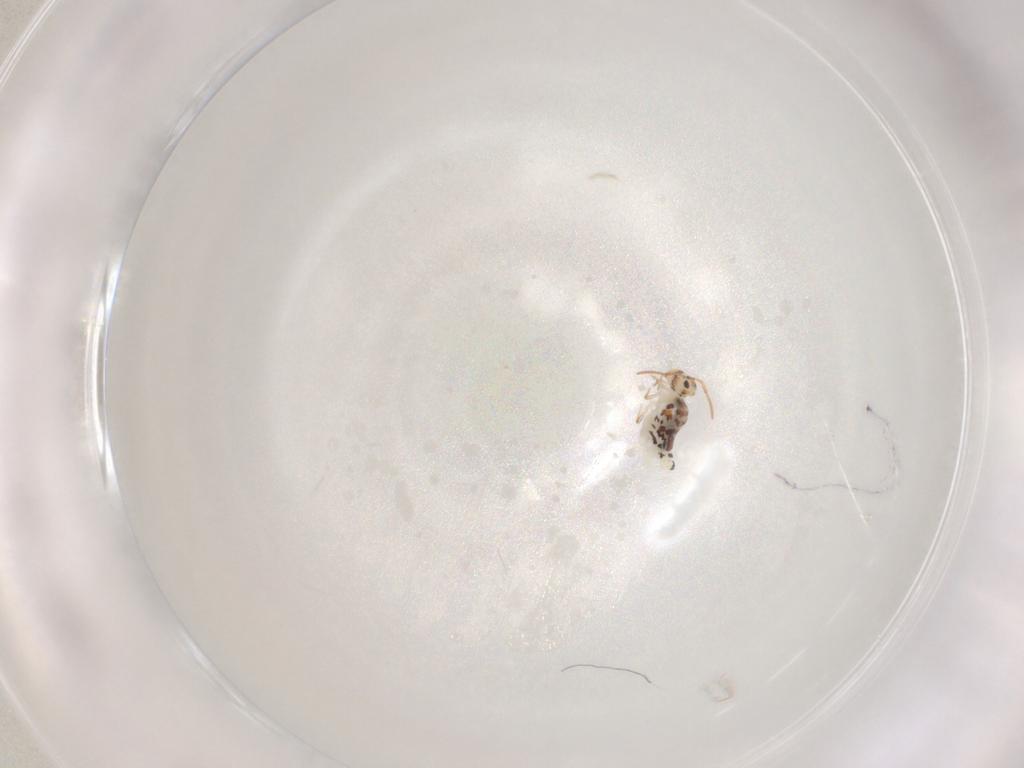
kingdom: Animalia
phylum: Arthropoda
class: Collembola
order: Symphypleona
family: Bourletiellidae
